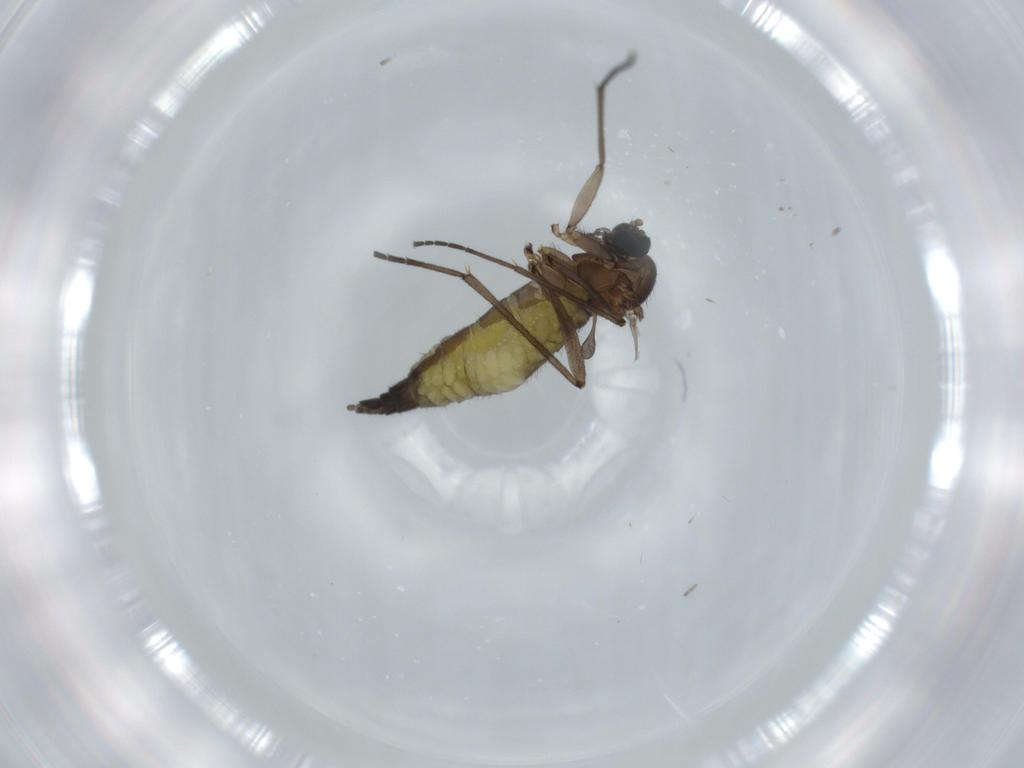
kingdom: Animalia
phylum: Arthropoda
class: Insecta
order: Diptera
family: Sciaridae
